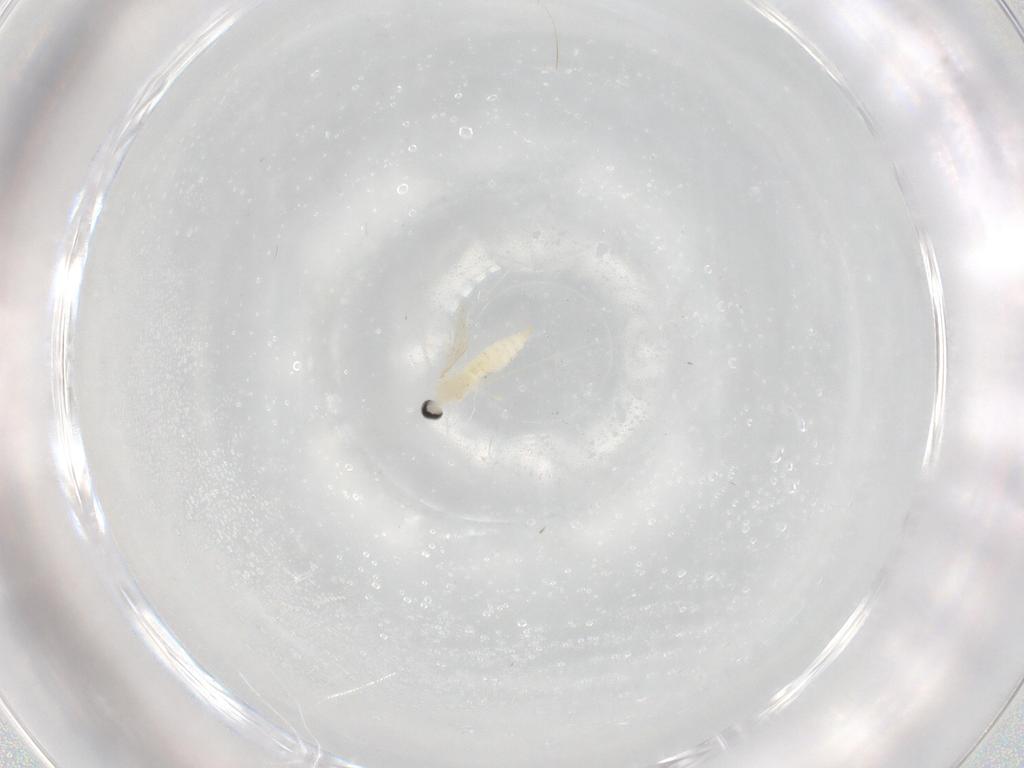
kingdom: Animalia
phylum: Arthropoda
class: Insecta
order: Diptera
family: Cecidomyiidae
